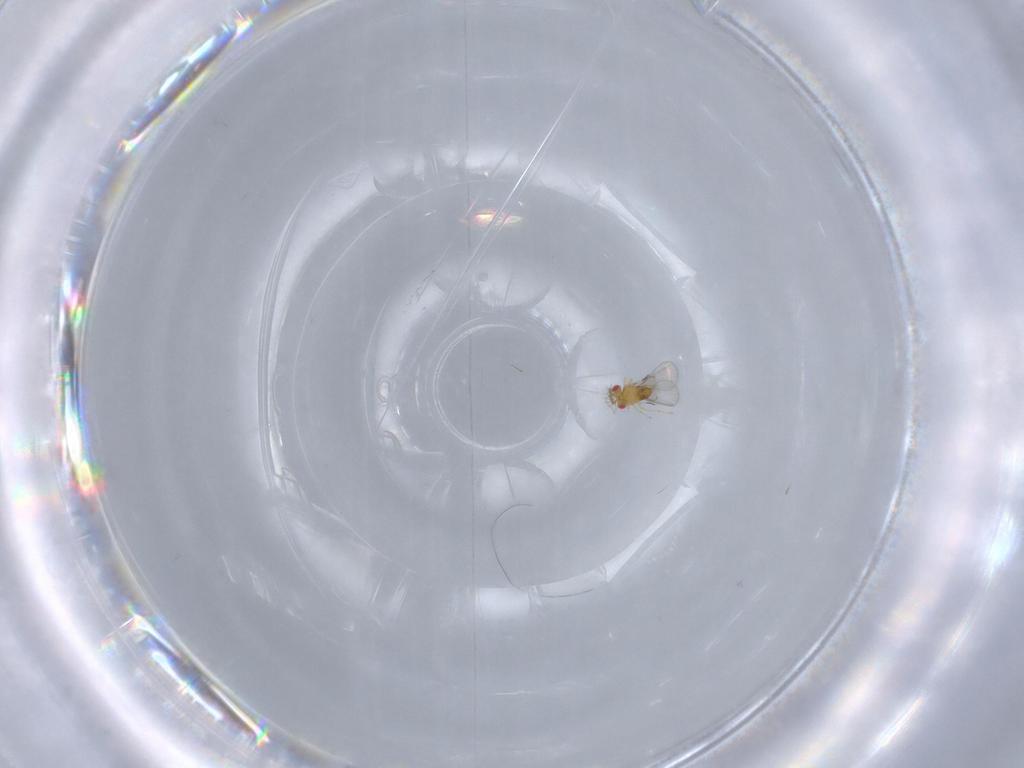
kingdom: Animalia
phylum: Arthropoda
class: Insecta
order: Hymenoptera
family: Trichogrammatidae
